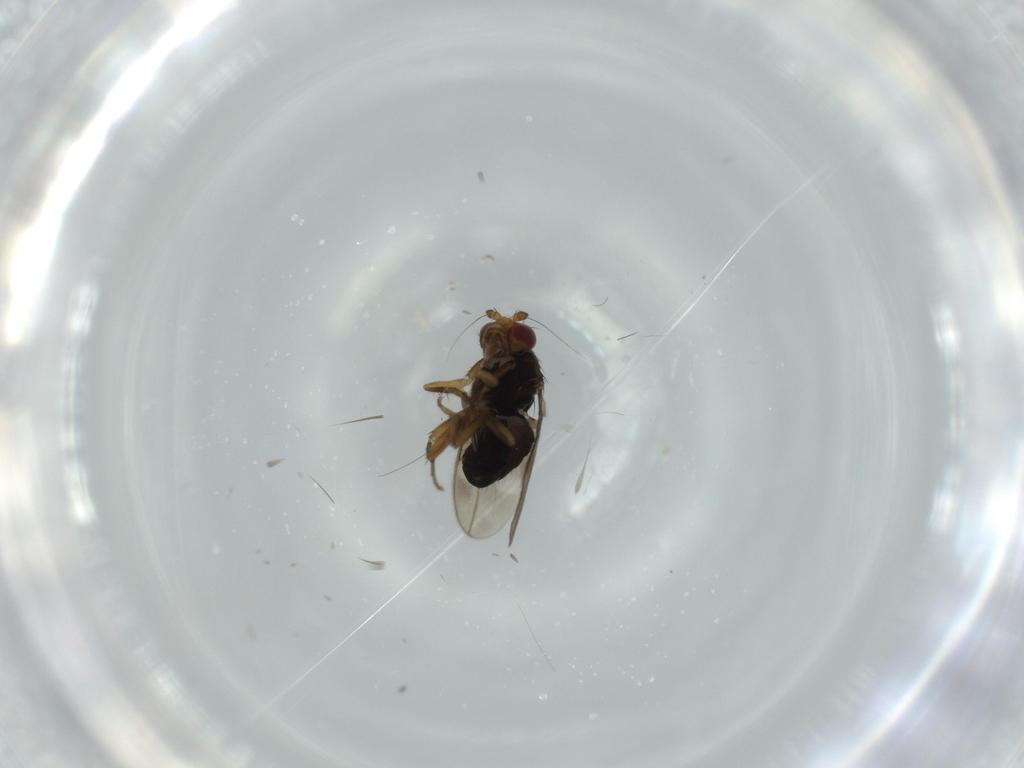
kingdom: Animalia
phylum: Arthropoda
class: Insecta
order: Diptera
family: Sphaeroceridae
